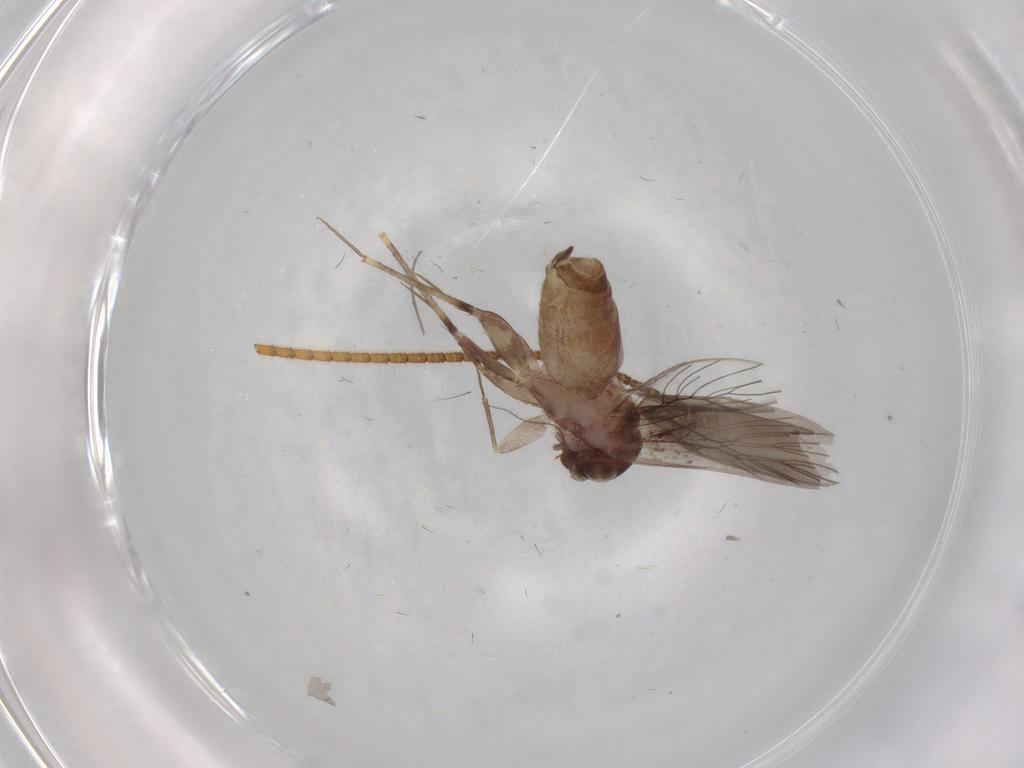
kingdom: Animalia
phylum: Arthropoda
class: Insecta
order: Psocodea
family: Lepidopsocidae
